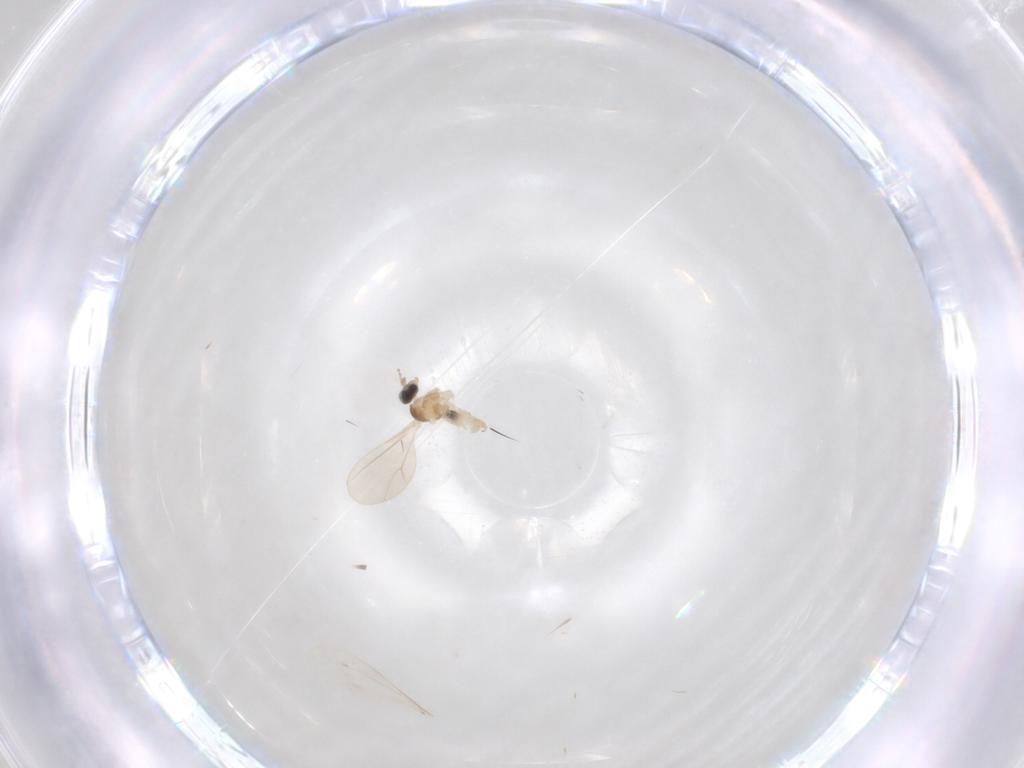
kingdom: Animalia
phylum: Arthropoda
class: Insecta
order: Diptera
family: Cecidomyiidae
